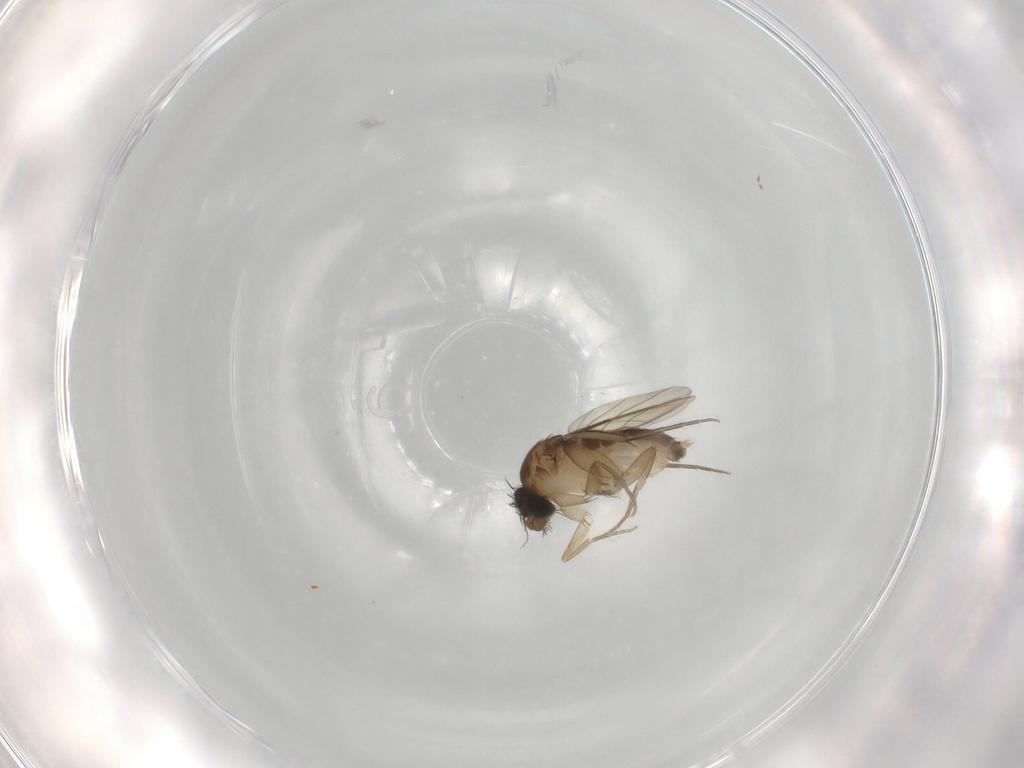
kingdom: Animalia
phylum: Arthropoda
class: Insecta
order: Diptera
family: Phoridae
